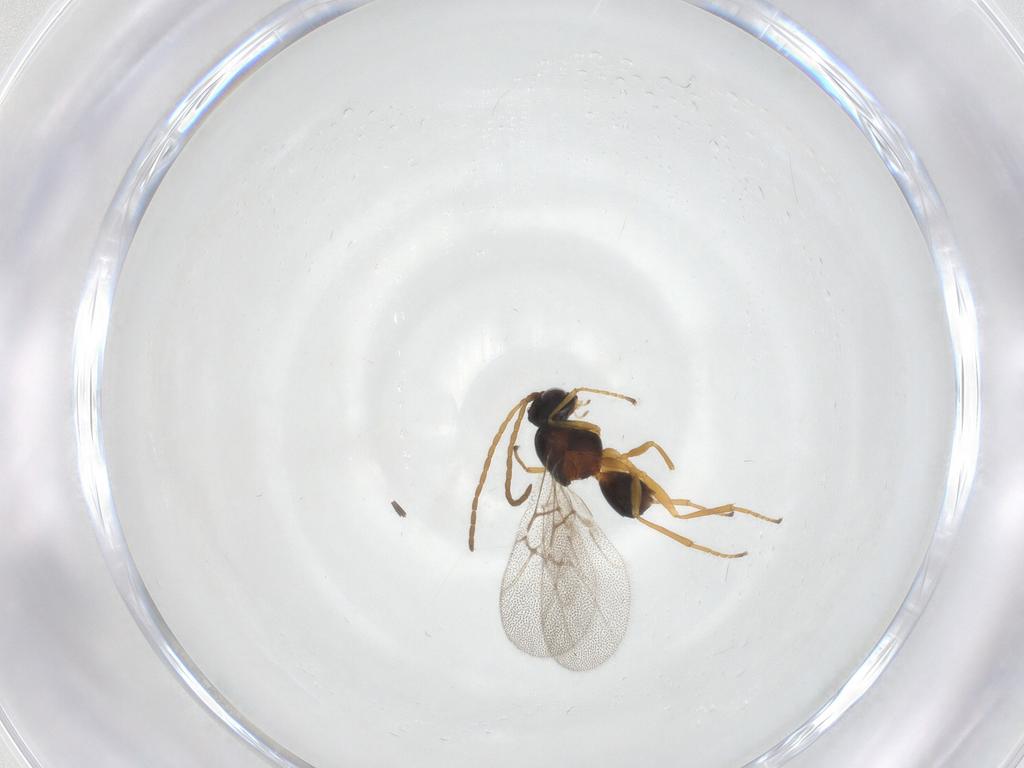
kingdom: Animalia
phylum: Arthropoda
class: Insecta
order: Hymenoptera
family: Cynipidae
